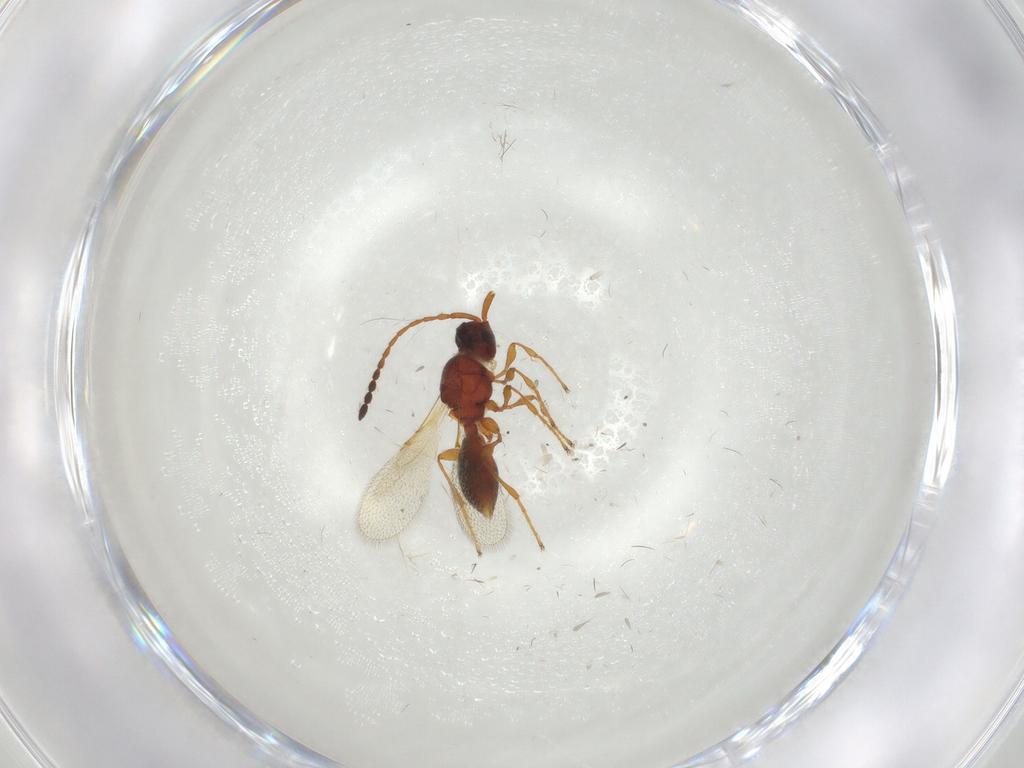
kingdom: Animalia
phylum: Arthropoda
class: Insecta
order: Hymenoptera
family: Diapriidae
